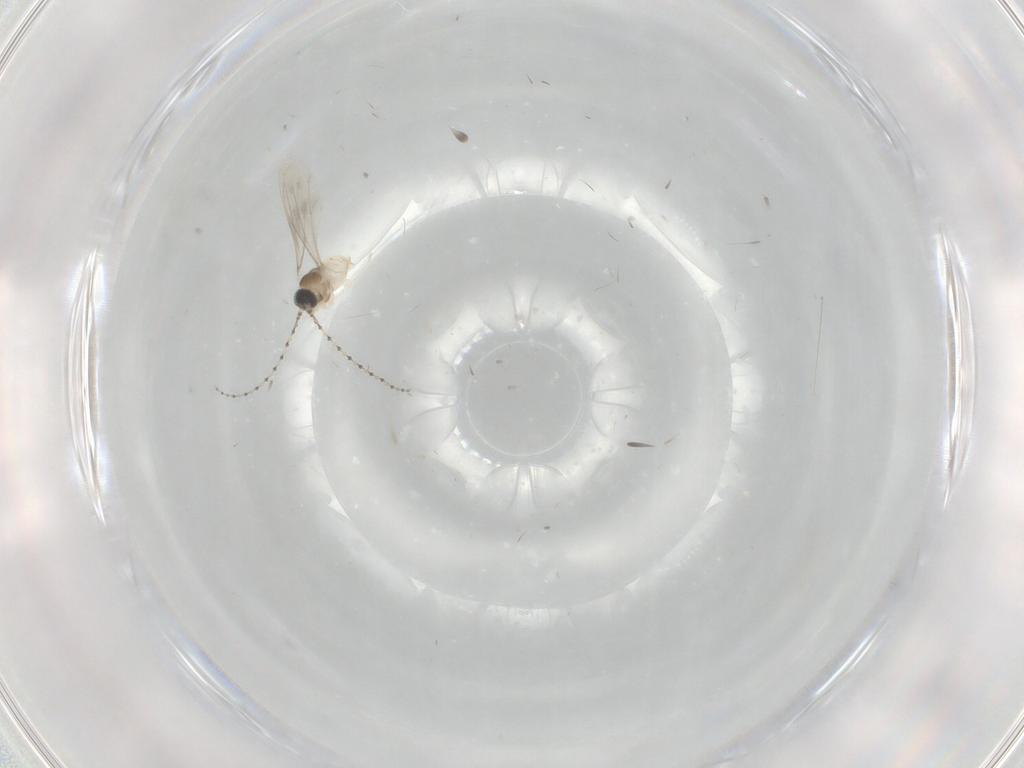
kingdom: Animalia
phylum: Arthropoda
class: Insecta
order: Diptera
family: Cecidomyiidae
